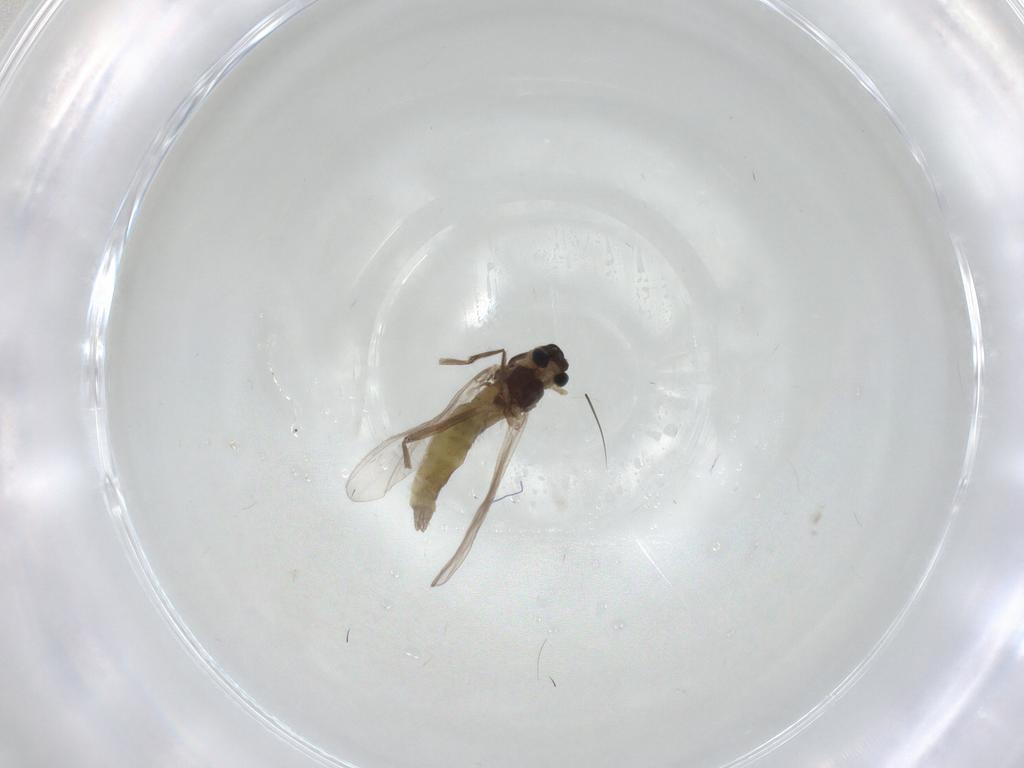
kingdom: Animalia
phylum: Arthropoda
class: Insecta
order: Diptera
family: Chironomidae
